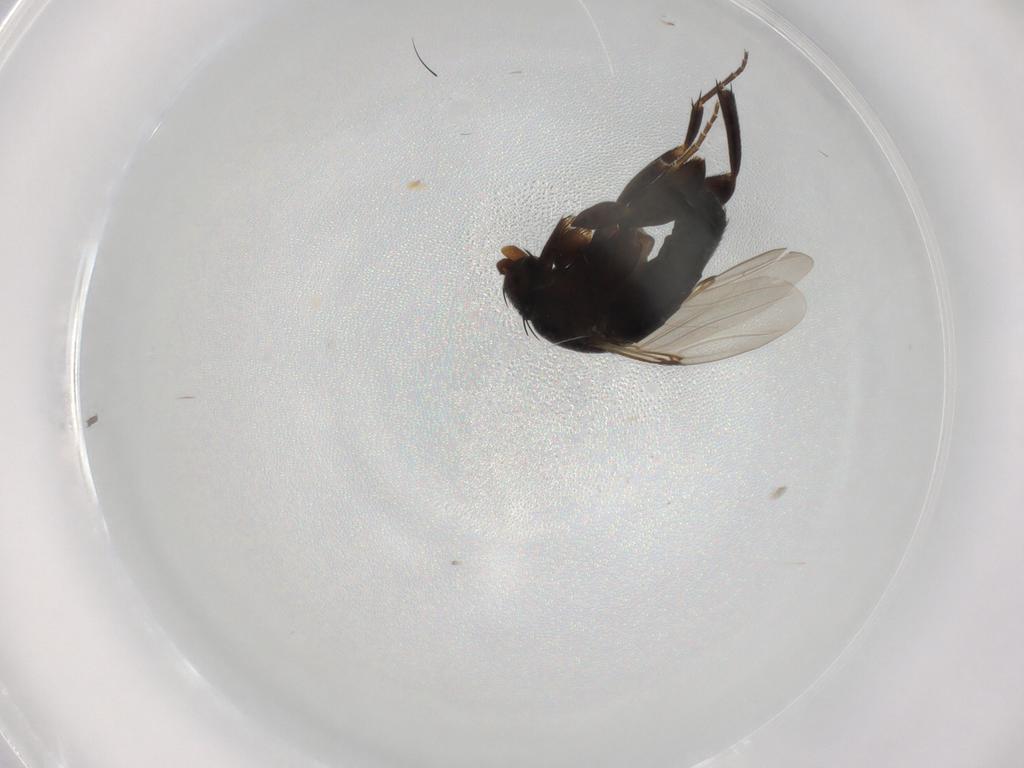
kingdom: Animalia
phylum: Arthropoda
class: Insecta
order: Diptera
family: Phoridae
